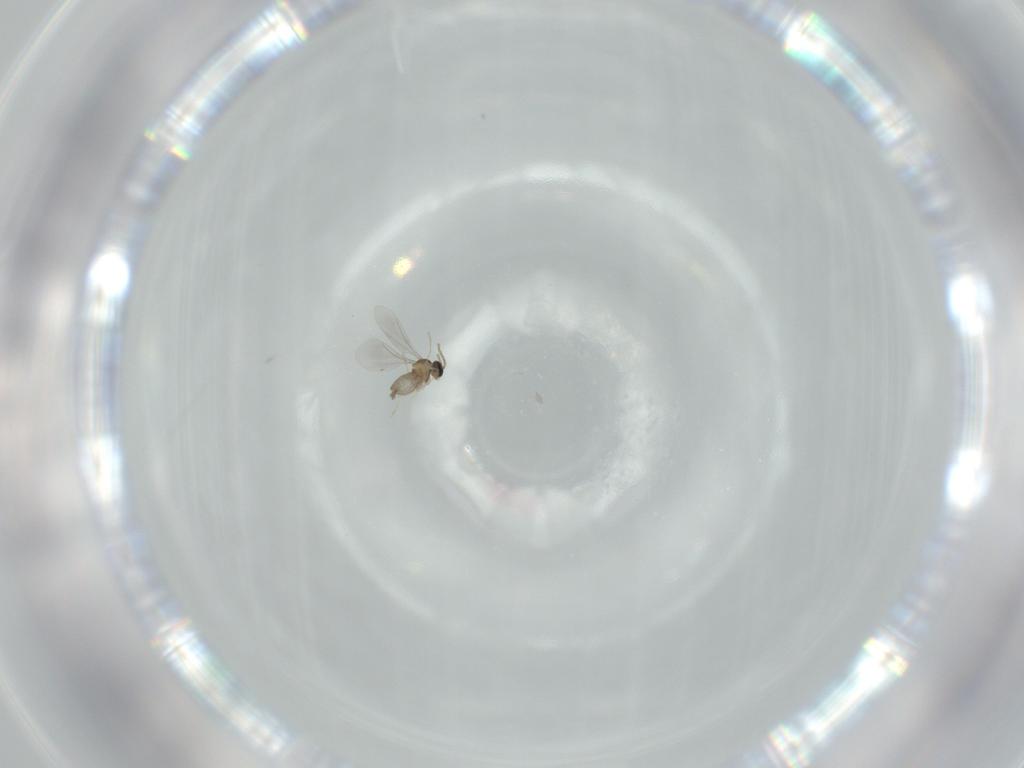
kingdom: Animalia
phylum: Arthropoda
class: Insecta
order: Diptera
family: Cecidomyiidae
